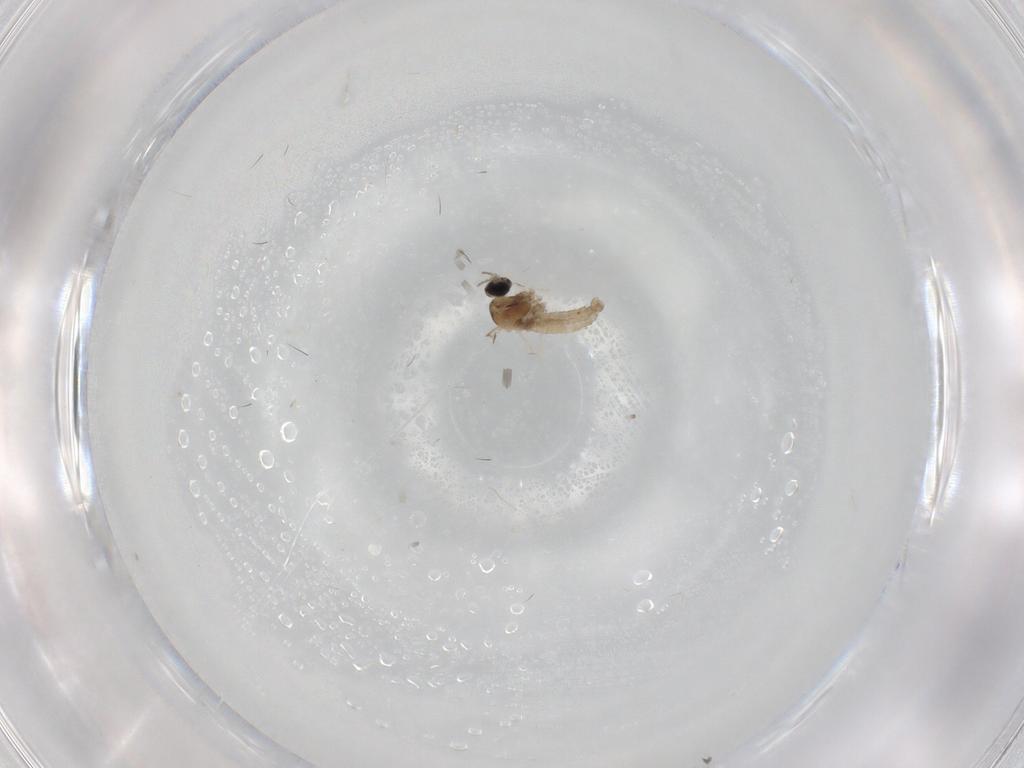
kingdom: Animalia
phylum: Arthropoda
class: Insecta
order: Diptera
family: Cecidomyiidae
